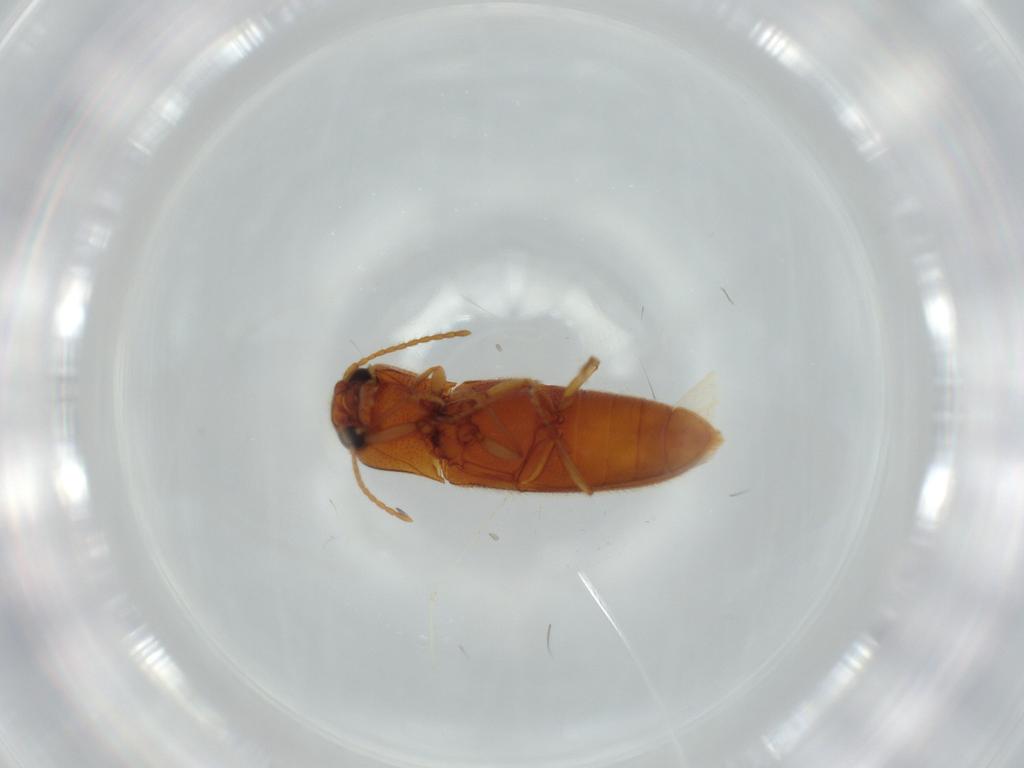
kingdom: Animalia
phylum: Arthropoda
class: Insecta
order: Coleoptera
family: Elateridae
